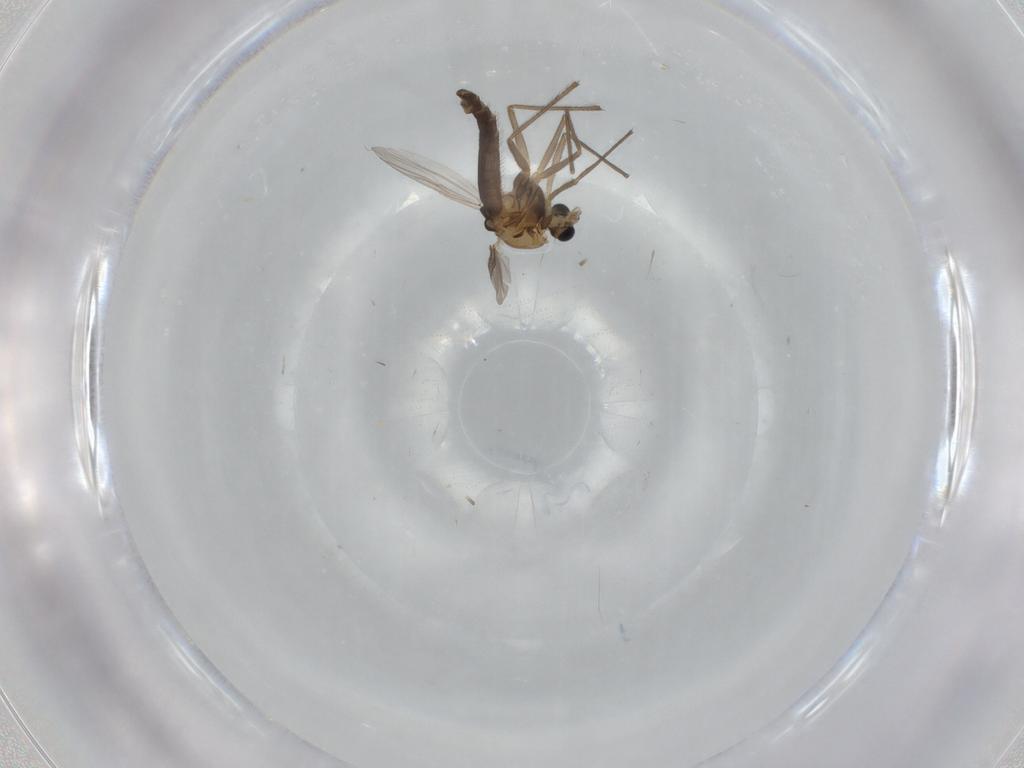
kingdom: Animalia
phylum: Arthropoda
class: Insecta
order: Diptera
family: Chironomidae
